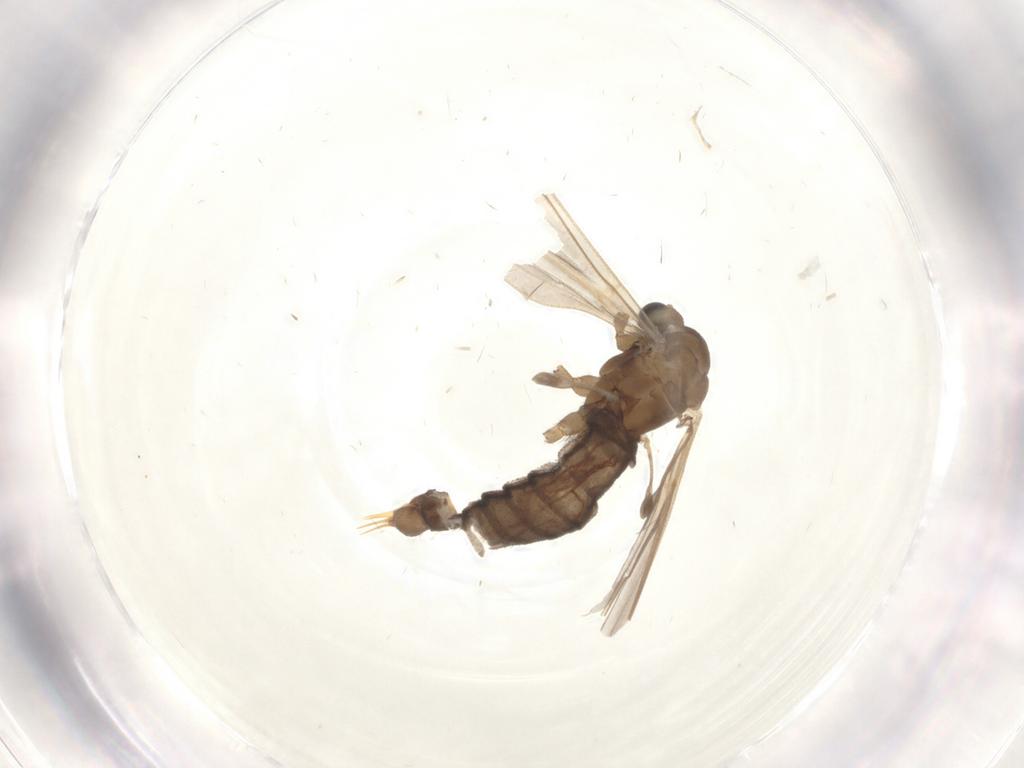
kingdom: Animalia
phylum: Arthropoda
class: Insecta
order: Diptera
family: Limoniidae
